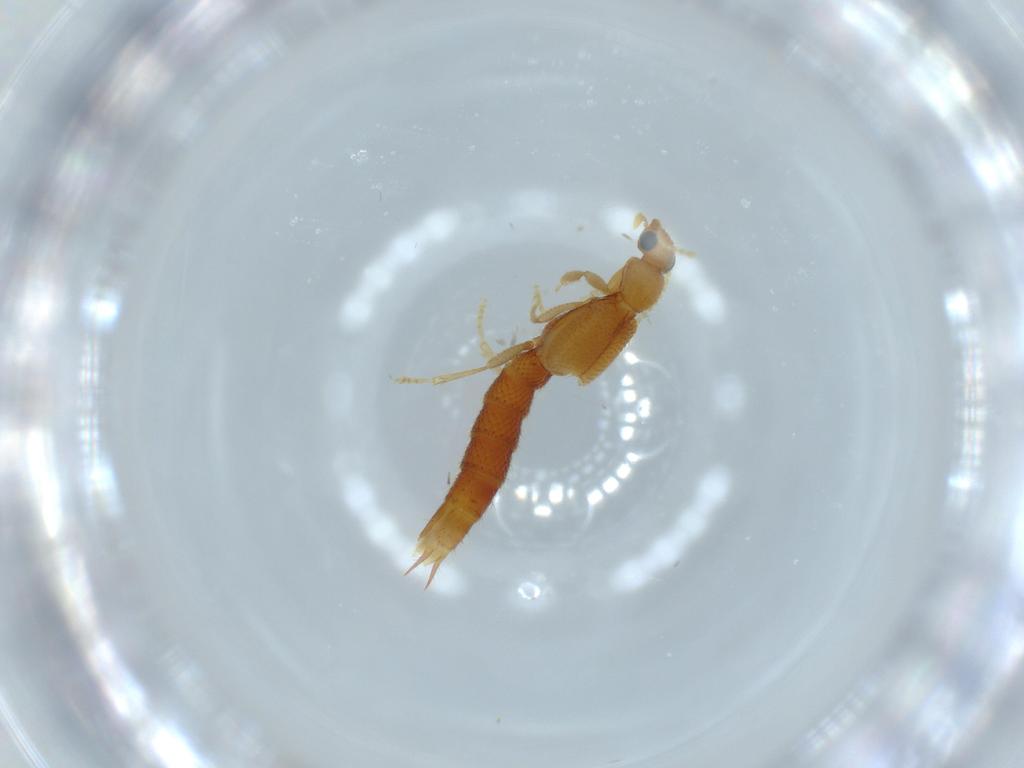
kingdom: Animalia
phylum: Arthropoda
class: Insecta
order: Coleoptera
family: Staphylinidae
